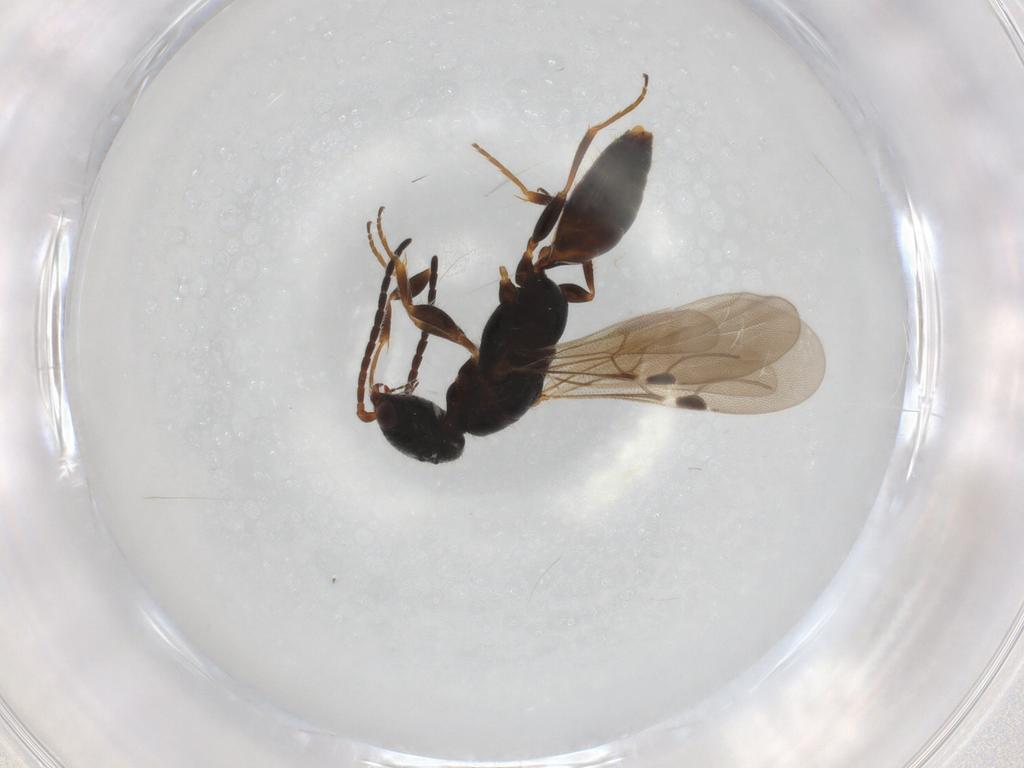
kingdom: Animalia
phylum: Arthropoda
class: Insecta
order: Hymenoptera
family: Bethylidae
